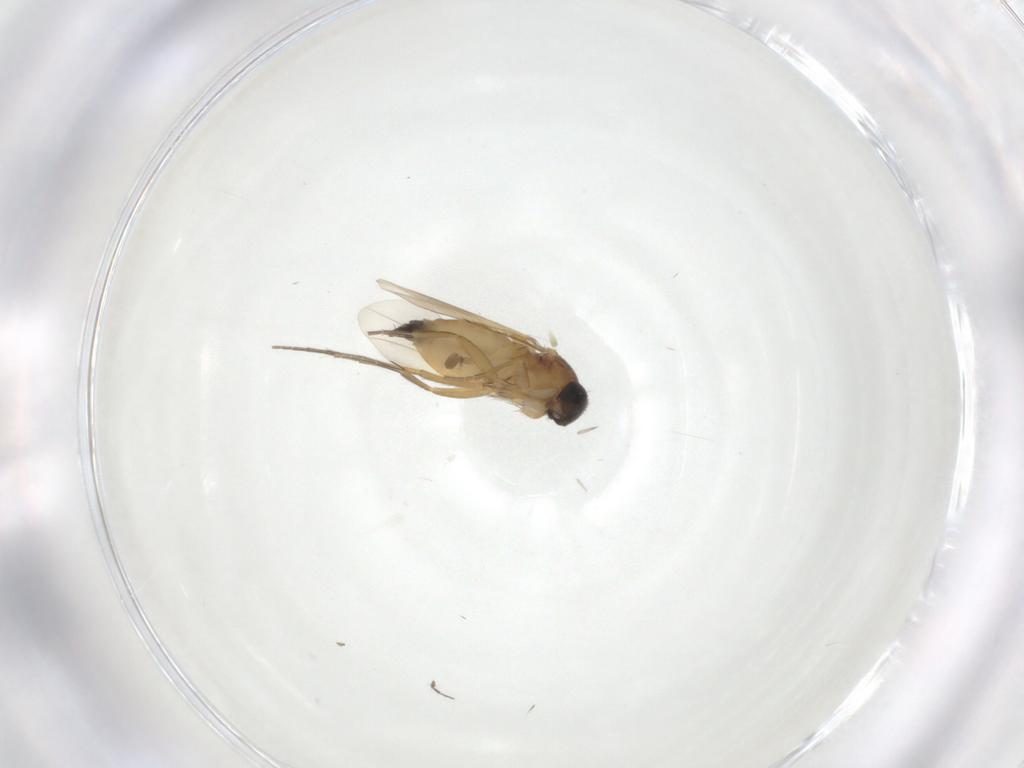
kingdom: Animalia
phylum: Arthropoda
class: Insecta
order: Diptera
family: Phoridae
